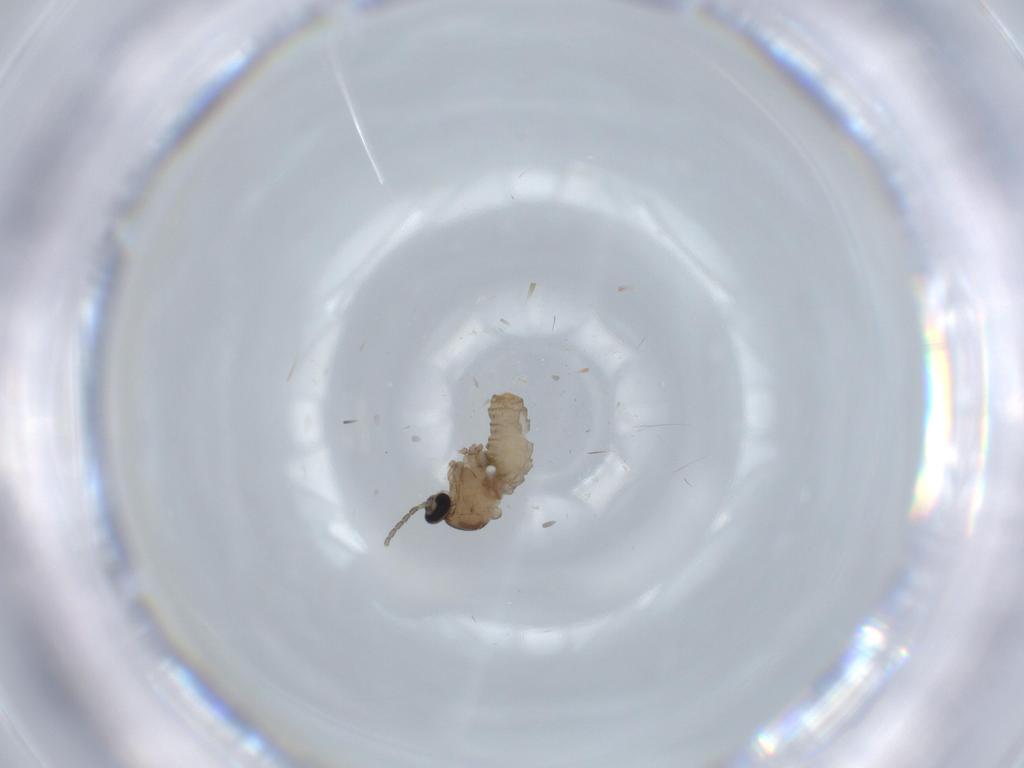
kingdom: Animalia
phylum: Arthropoda
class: Insecta
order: Diptera
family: Cecidomyiidae
